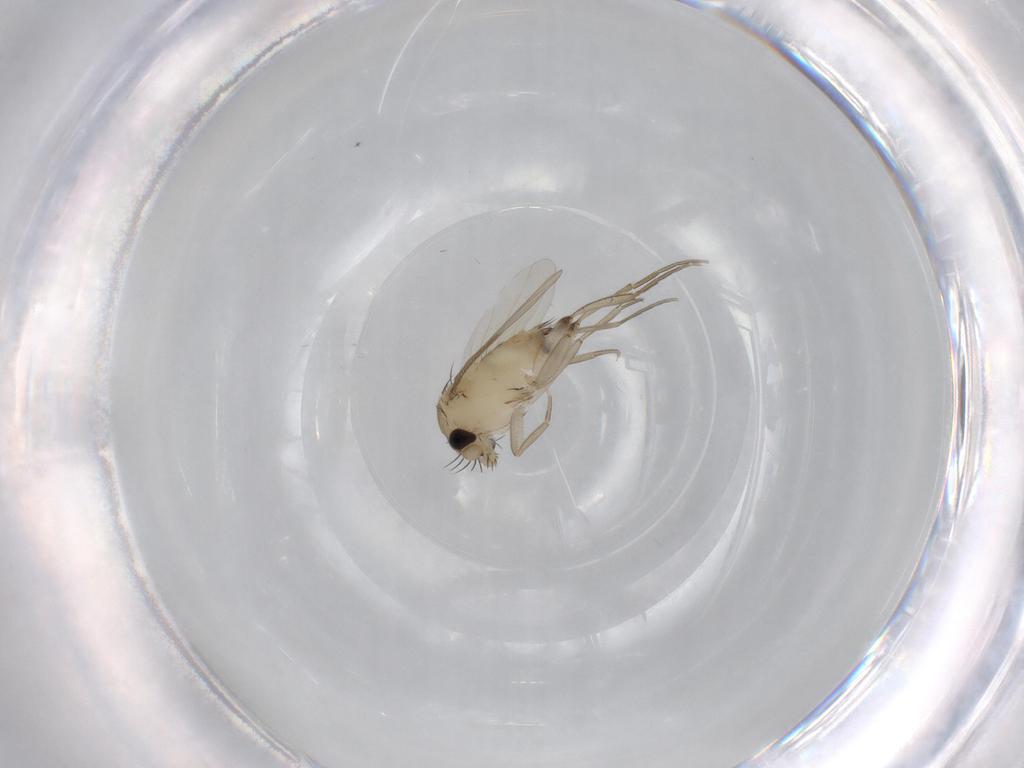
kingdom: Animalia
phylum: Arthropoda
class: Insecta
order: Diptera
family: Phoridae
